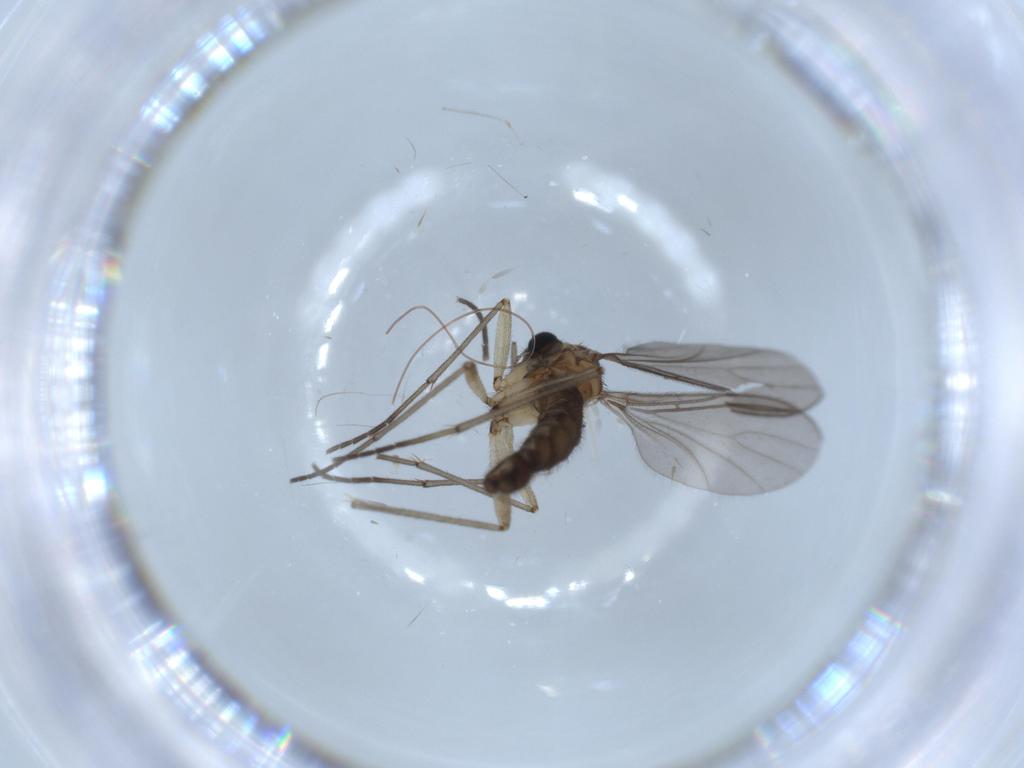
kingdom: Animalia
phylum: Arthropoda
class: Insecta
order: Diptera
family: Sciaridae
